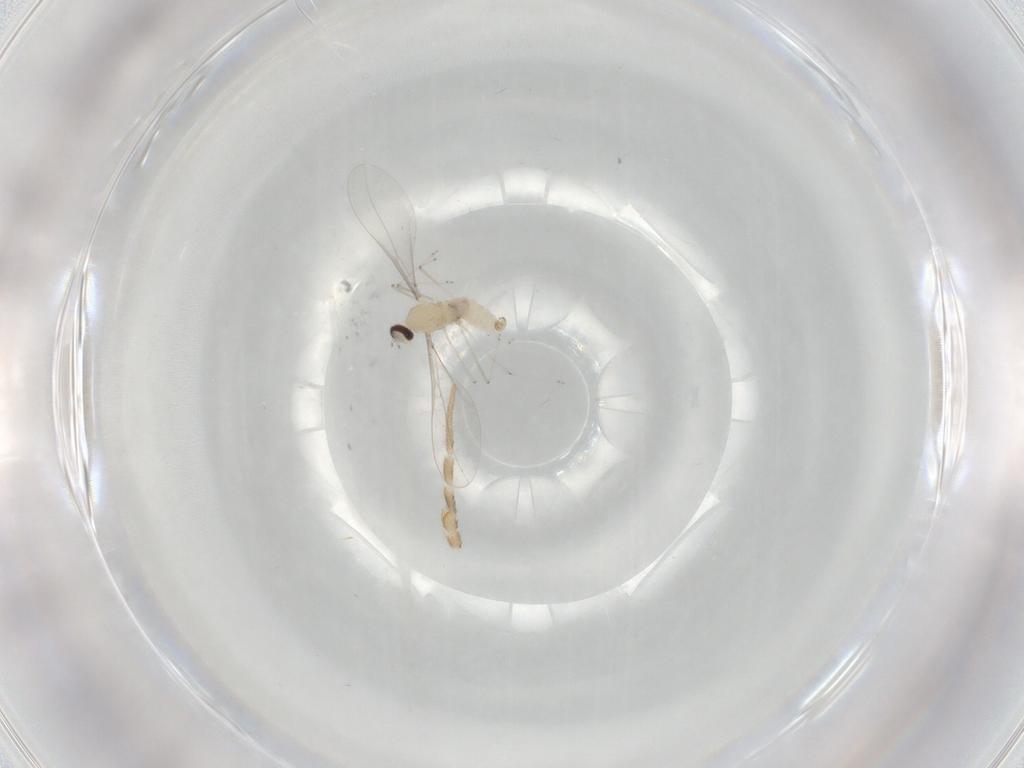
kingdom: Animalia
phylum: Arthropoda
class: Insecta
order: Diptera
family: Cecidomyiidae
